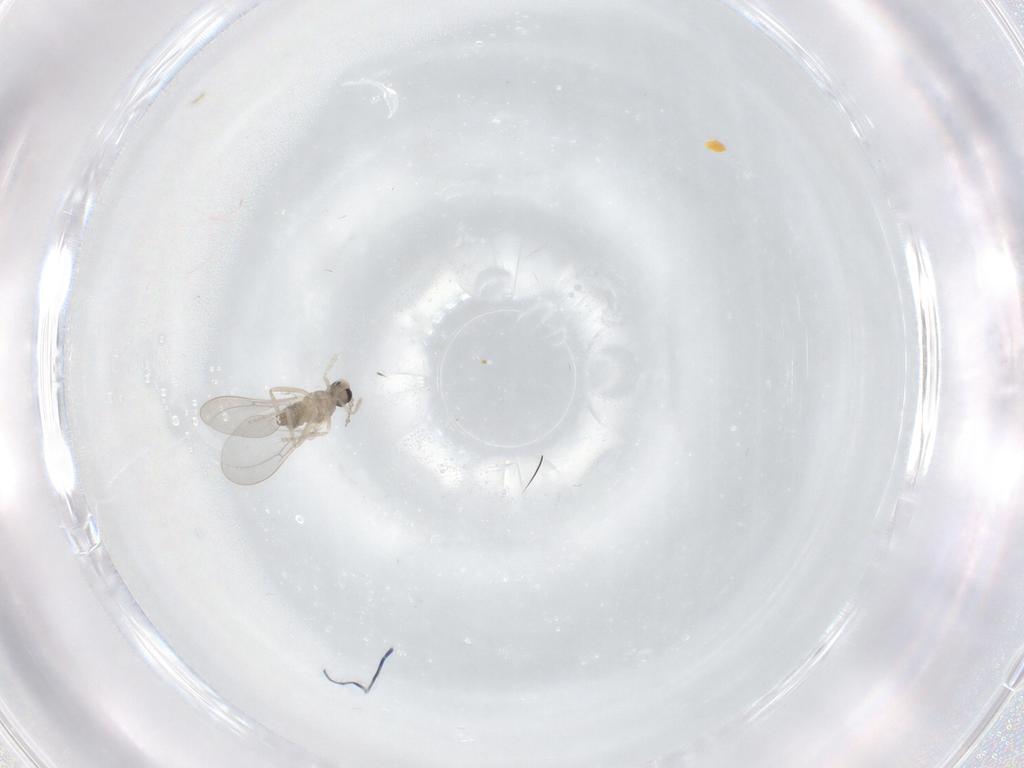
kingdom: Animalia
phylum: Arthropoda
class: Insecta
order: Diptera
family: Cecidomyiidae
